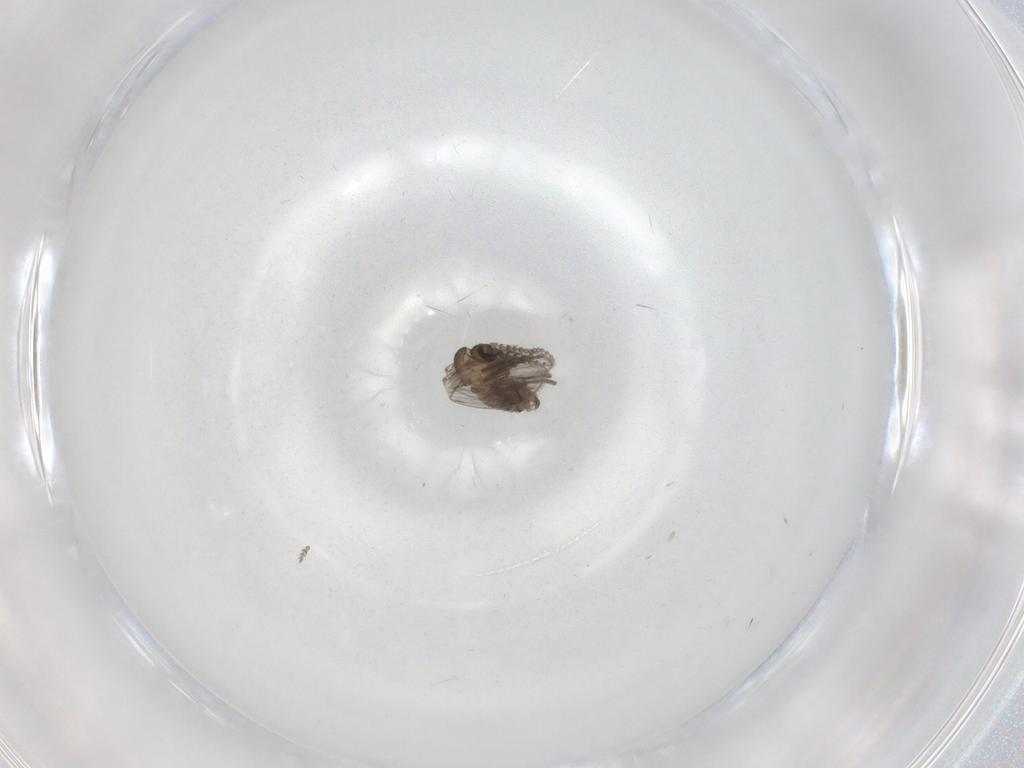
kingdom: Animalia
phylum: Arthropoda
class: Insecta
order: Diptera
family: Psychodidae
